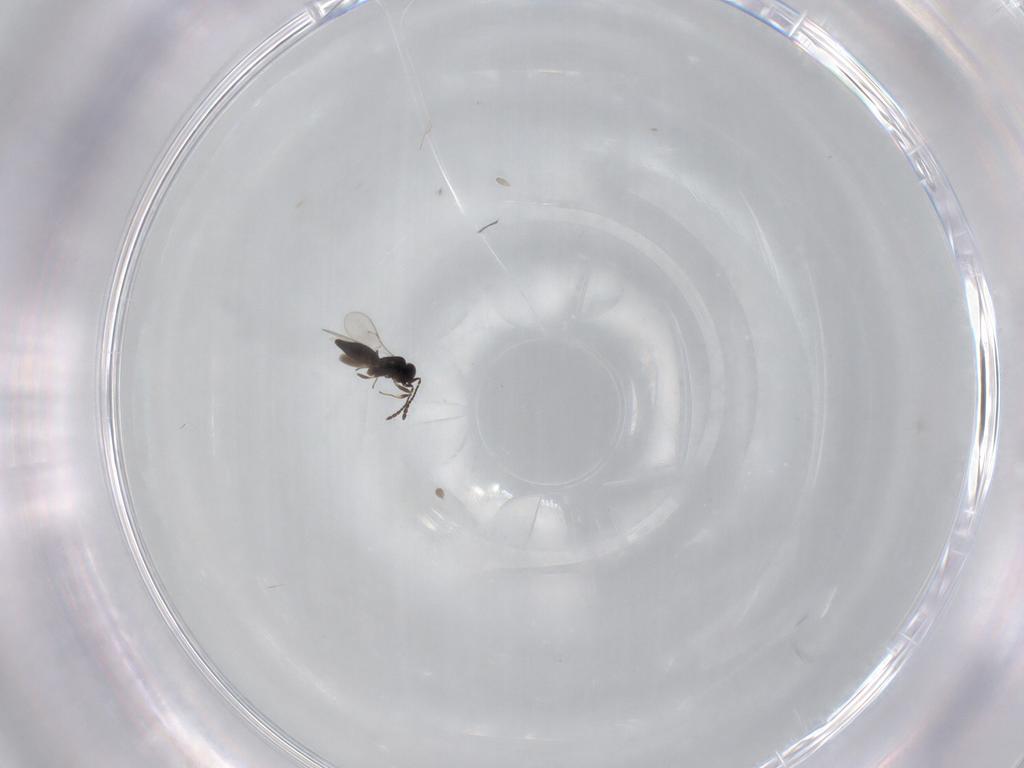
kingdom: Animalia
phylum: Arthropoda
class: Insecta
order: Hymenoptera
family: Scelionidae
